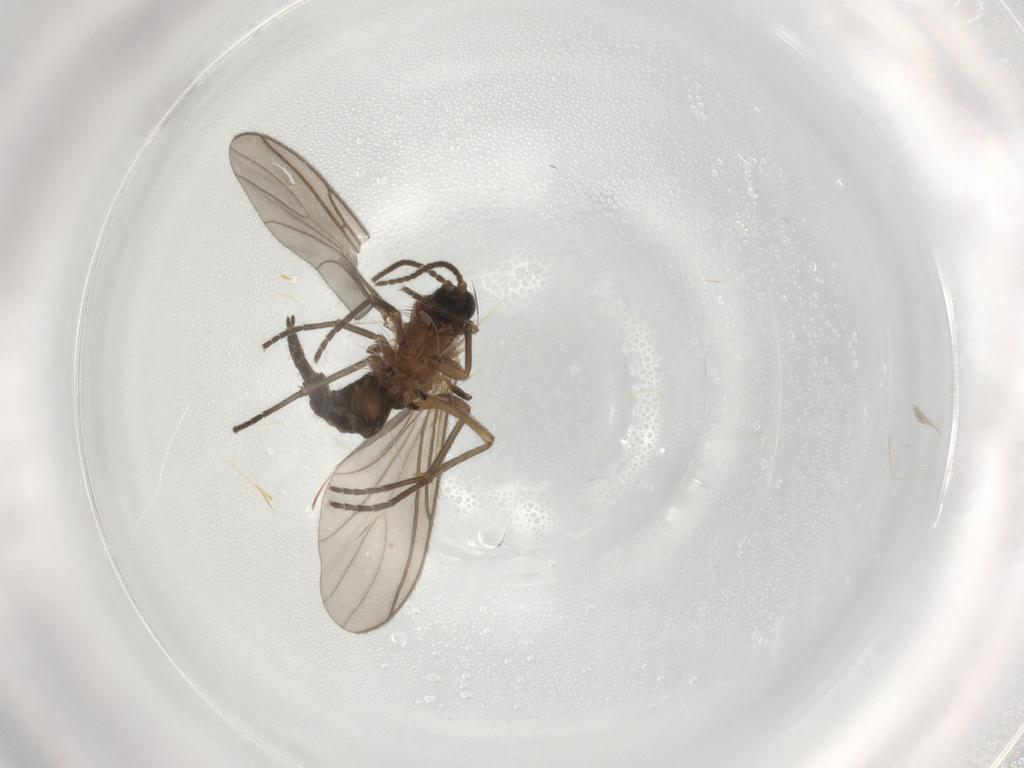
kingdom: Animalia
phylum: Arthropoda
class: Insecta
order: Diptera
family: Sciaridae
